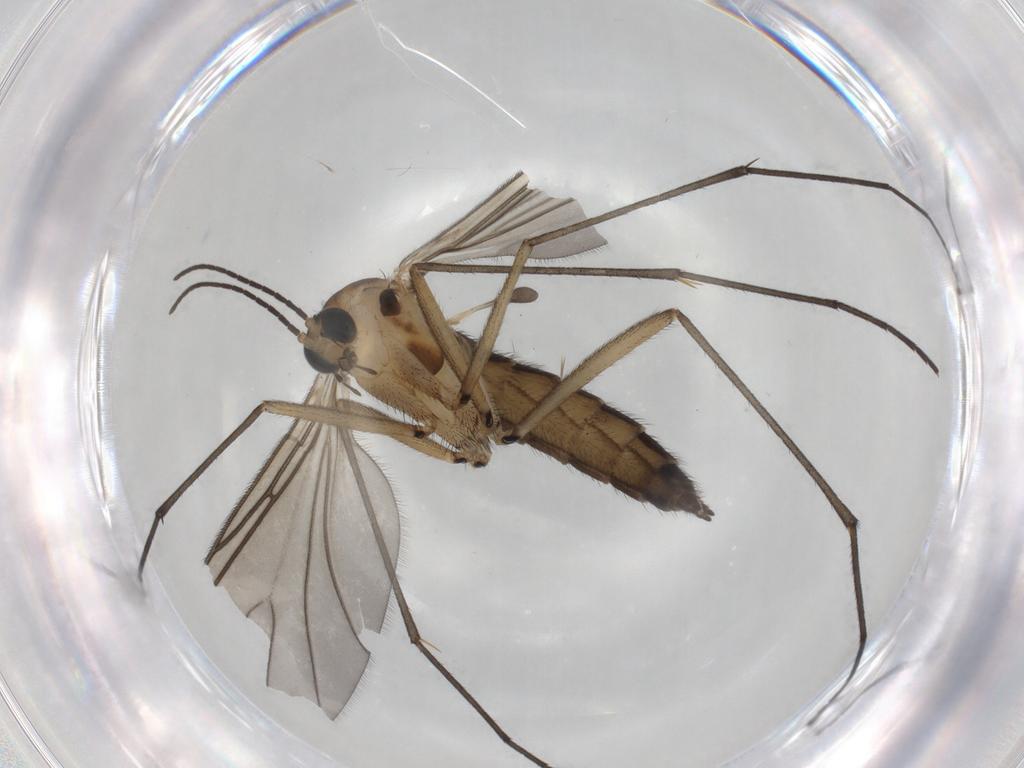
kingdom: Animalia
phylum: Arthropoda
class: Insecta
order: Diptera
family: Sciaridae
